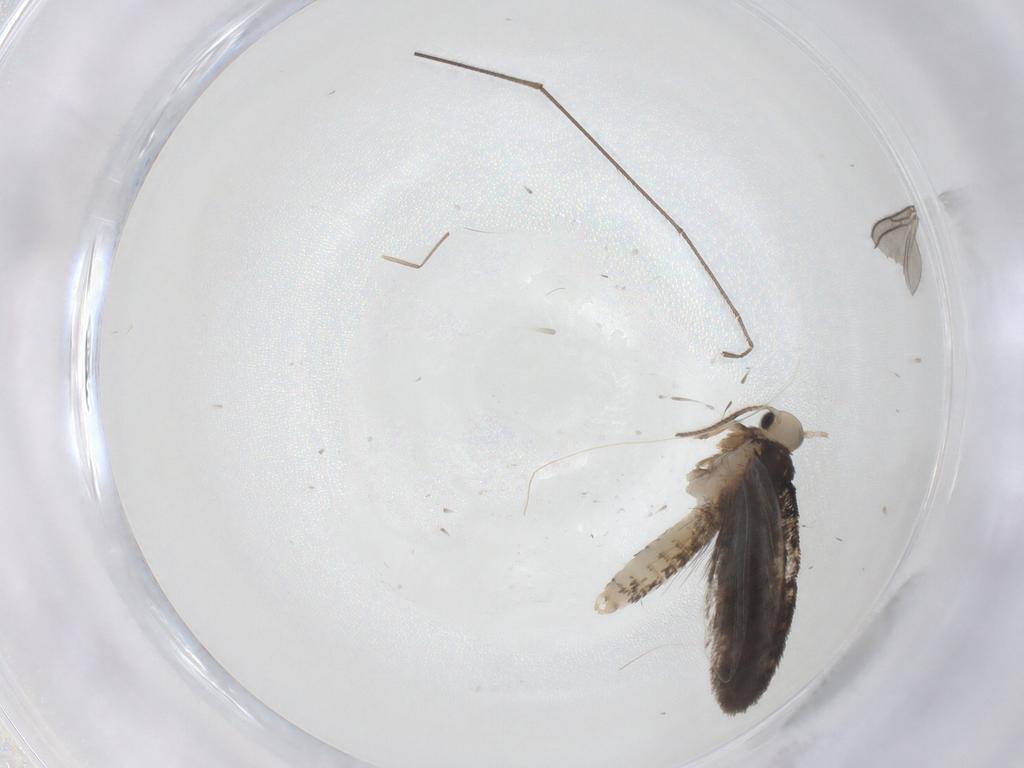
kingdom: Animalia
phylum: Arthropoda
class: Insecta
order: Lepidoptera
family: Psychidae
